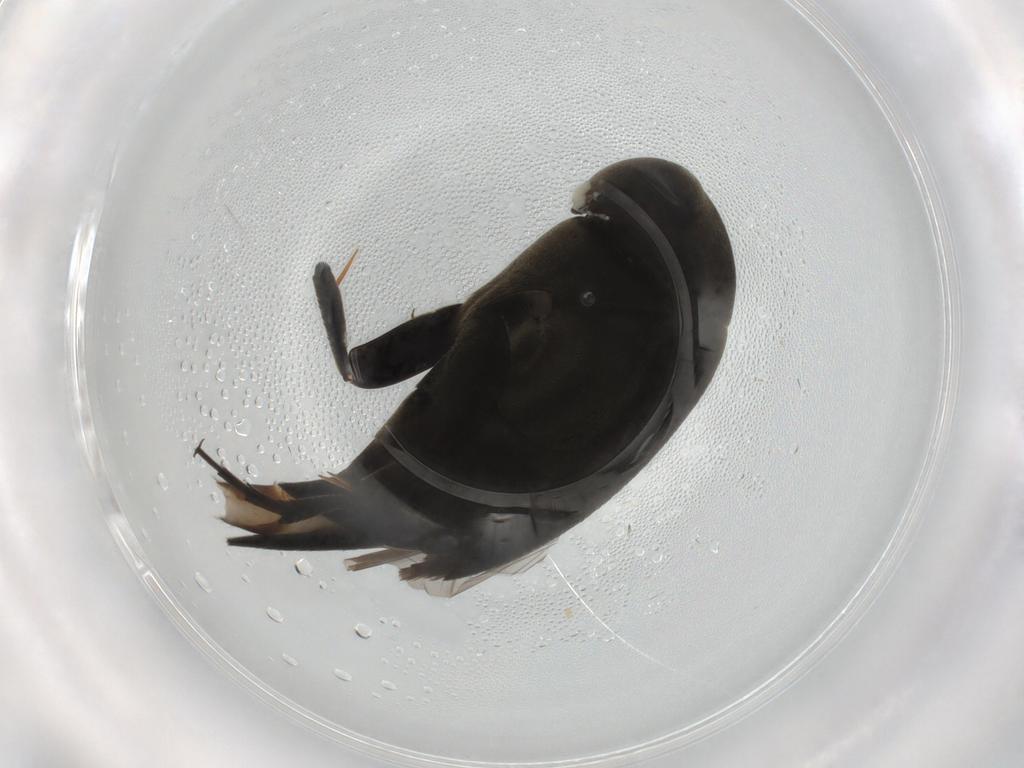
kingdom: Animalia
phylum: Arthropoda
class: Insecta
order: Coleoptera
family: Mordellidae
